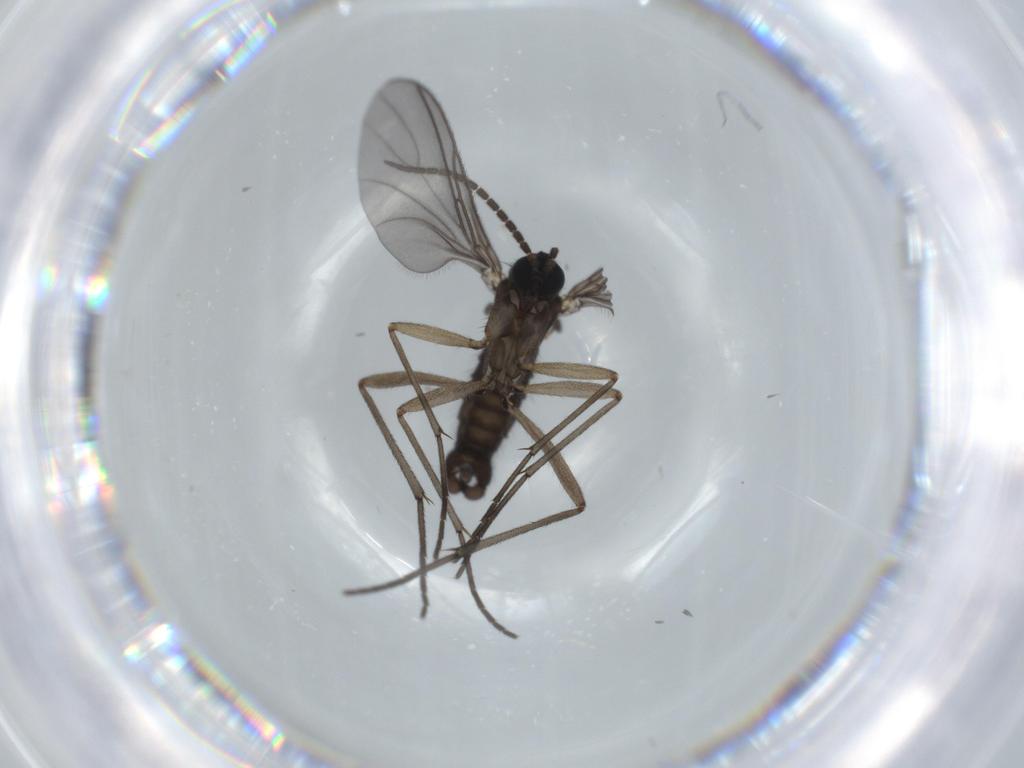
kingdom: Animalia
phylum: Arthropoda
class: Insecta
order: Diptera
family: Sciaridae
